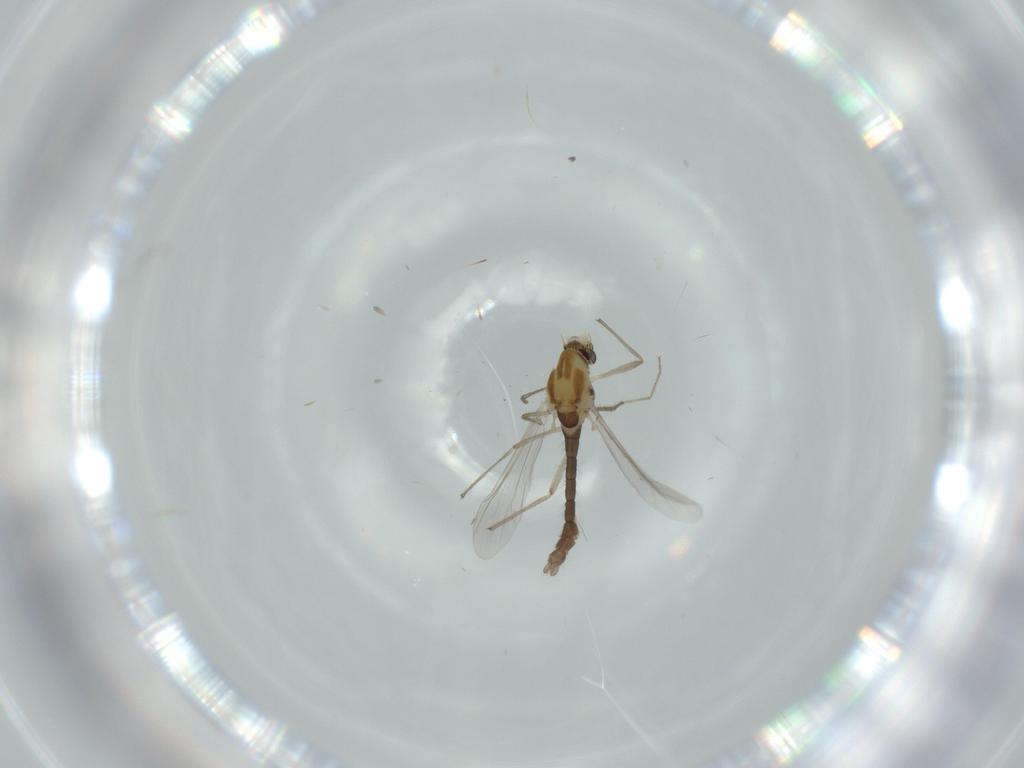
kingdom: Animalia
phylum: Arthropoda
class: Insecta
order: Diptera
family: Chironomidae
